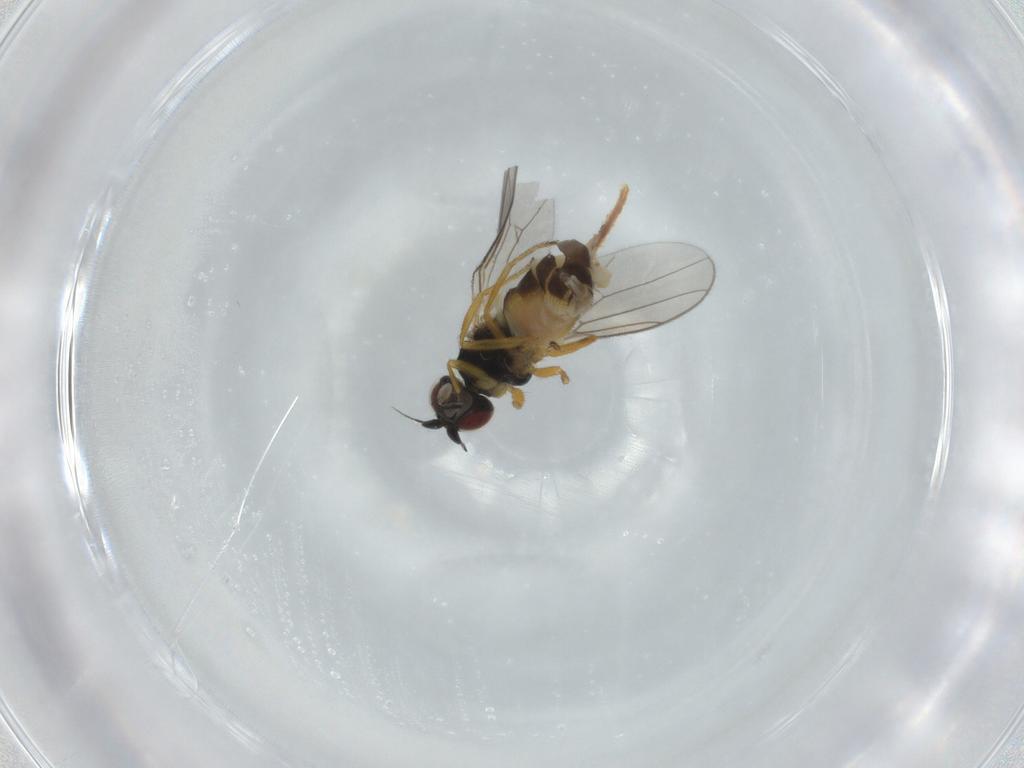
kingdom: Animalia
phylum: Arthropoda
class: Insecta
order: Diptera
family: Chloropidae
